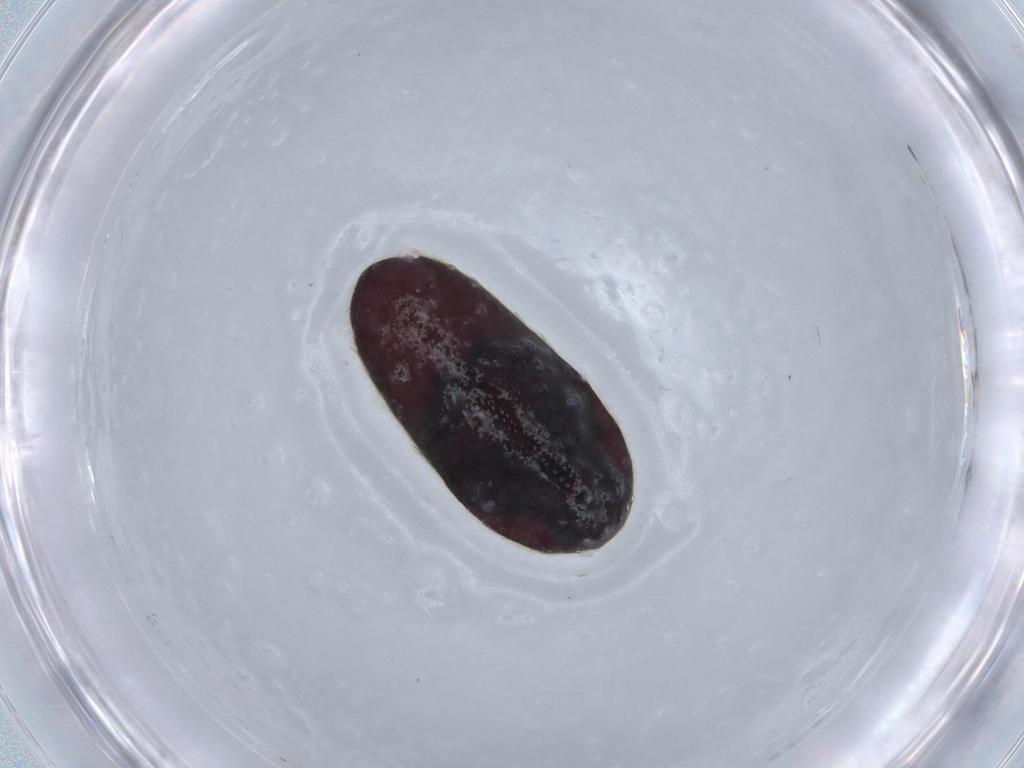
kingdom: Animalia
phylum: Arthropoda
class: Insecta
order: Coleoptera
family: Throscidae
